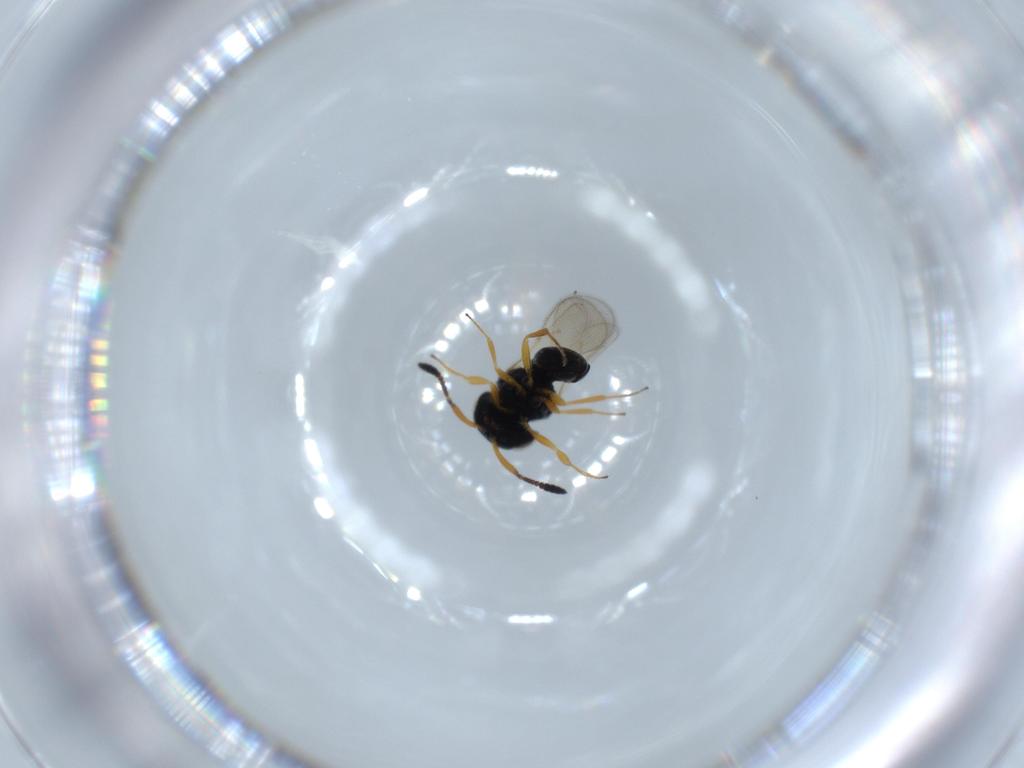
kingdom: Animalia
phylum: Arthropoda
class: Insecta
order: Hymenoptera
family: Scelionidae
